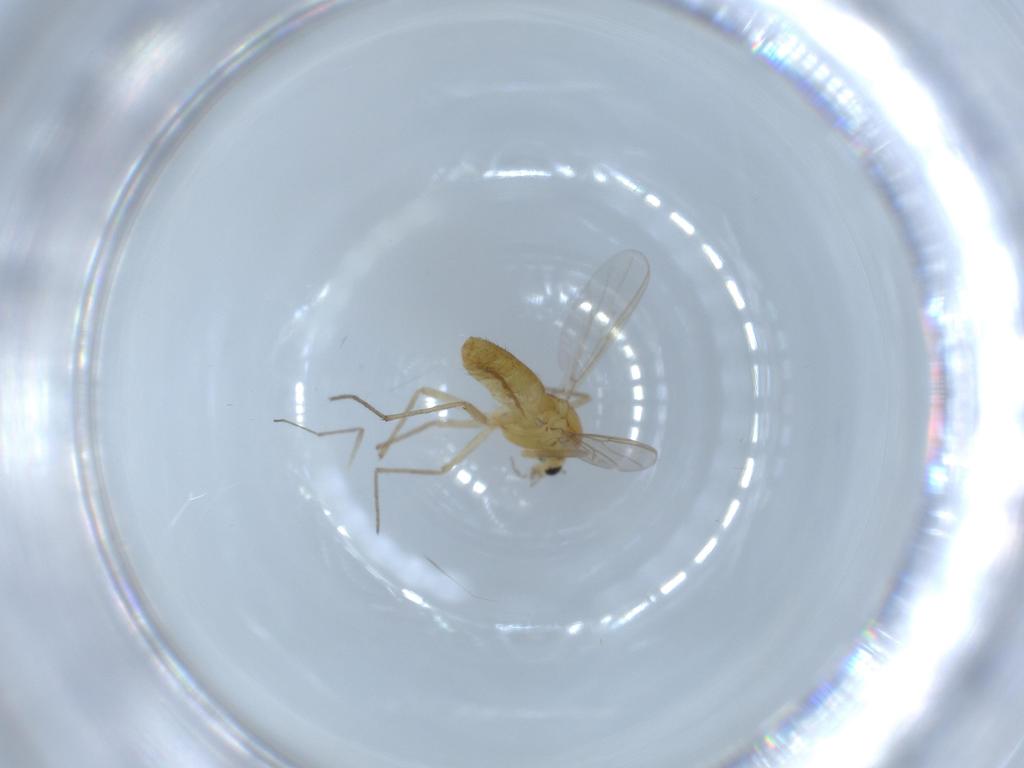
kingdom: Animalia
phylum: Arthropoda
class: Insecta
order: Diptera
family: Chironomidae
